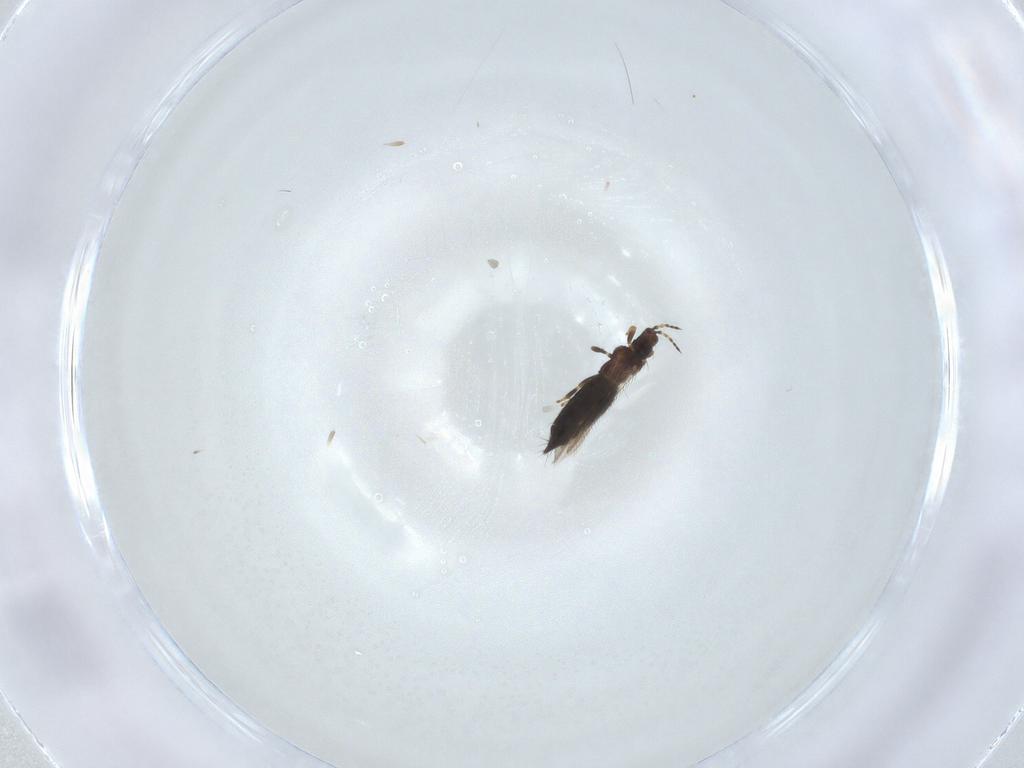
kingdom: Animalia
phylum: Arthropoda
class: Insecta
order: Thysanoptera
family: Thripidae
